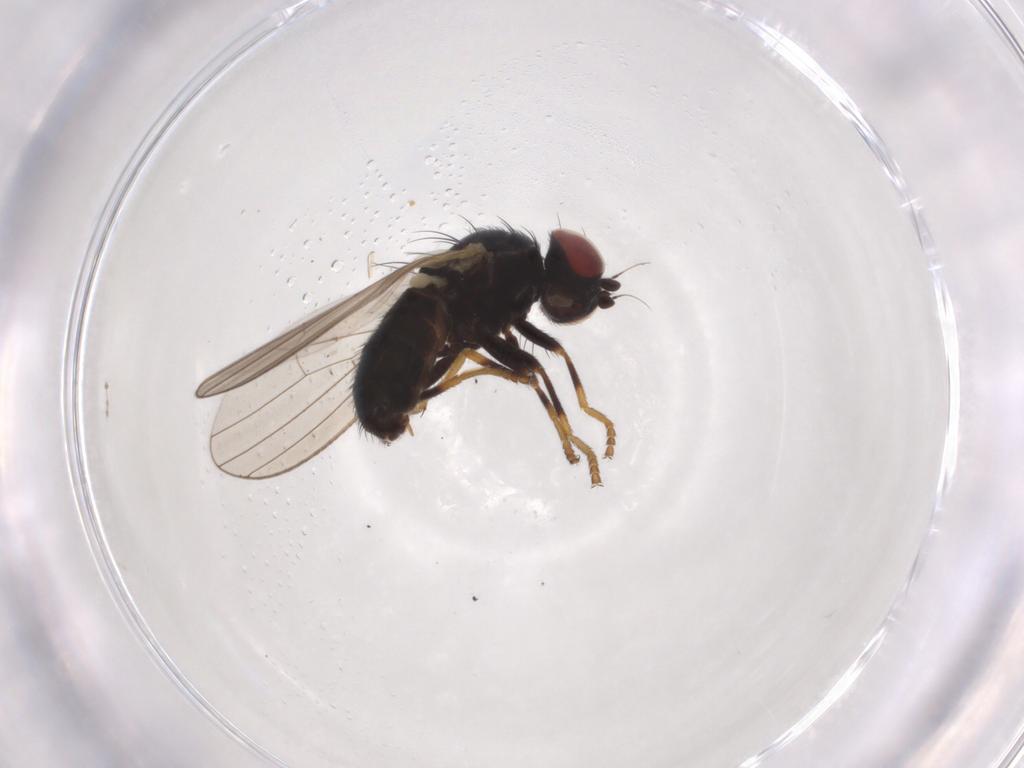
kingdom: Animalia
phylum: Arthropoda
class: Insecta
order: Diptera
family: Chamaemyiidae
